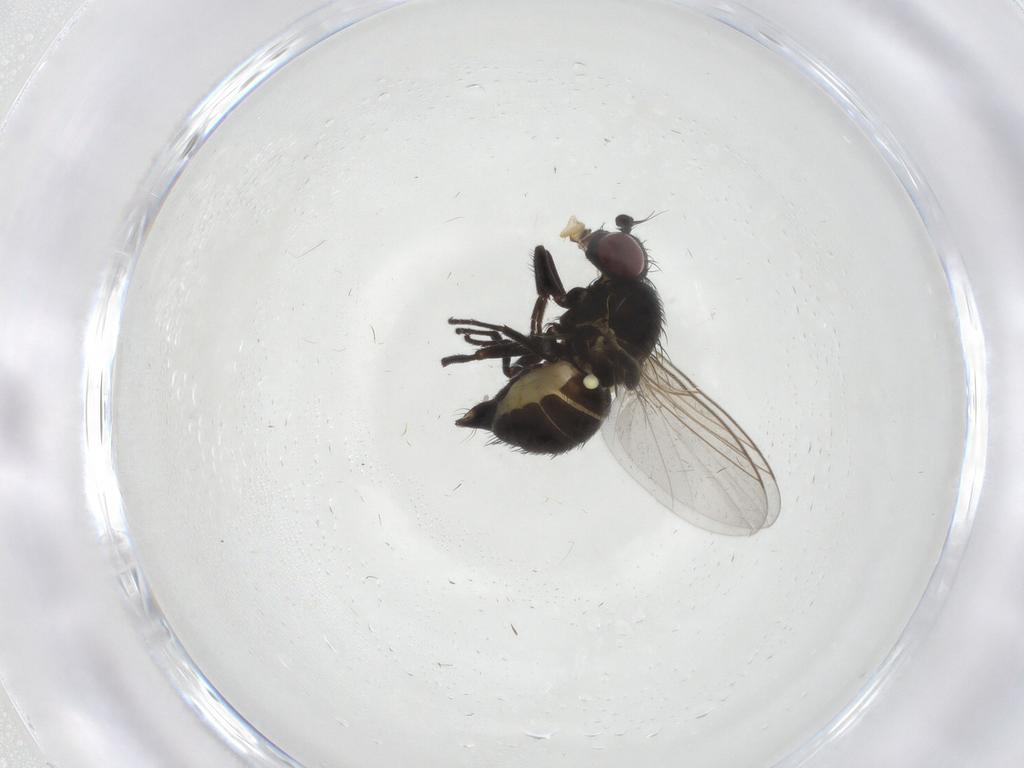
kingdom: Animalia
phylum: Arthropoda
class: Insecta
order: Diptera
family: Agromyzidae
